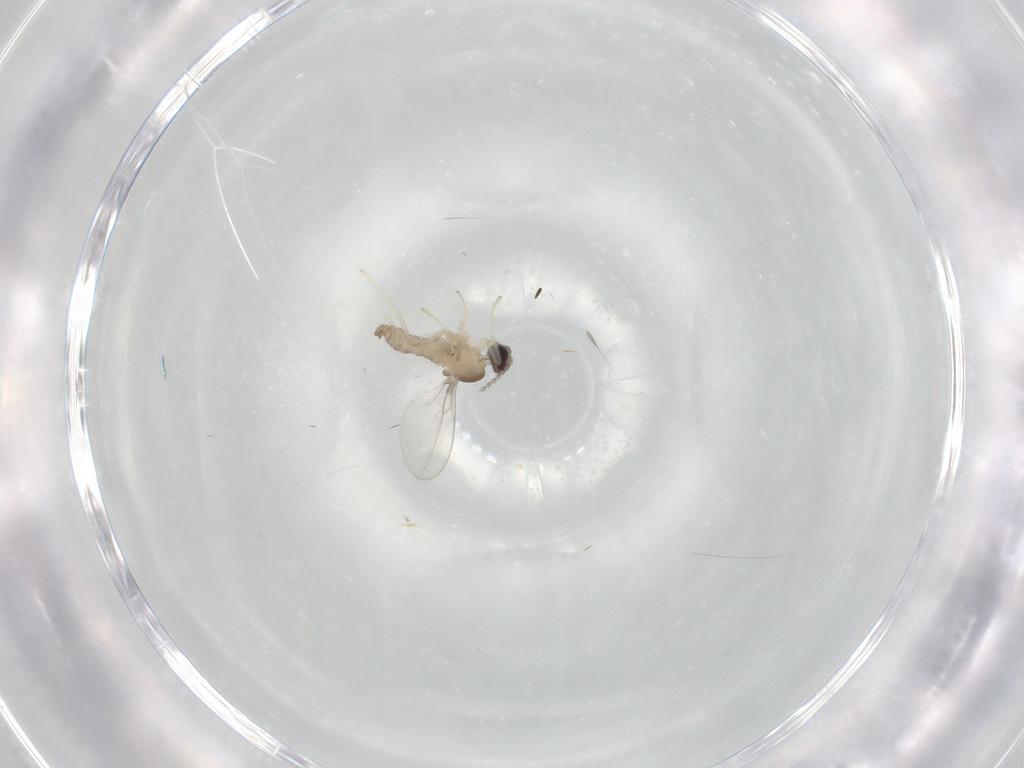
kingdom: Animalia
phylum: Arthropoda
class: Insecta
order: Diptera
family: Cecidomyiidae
